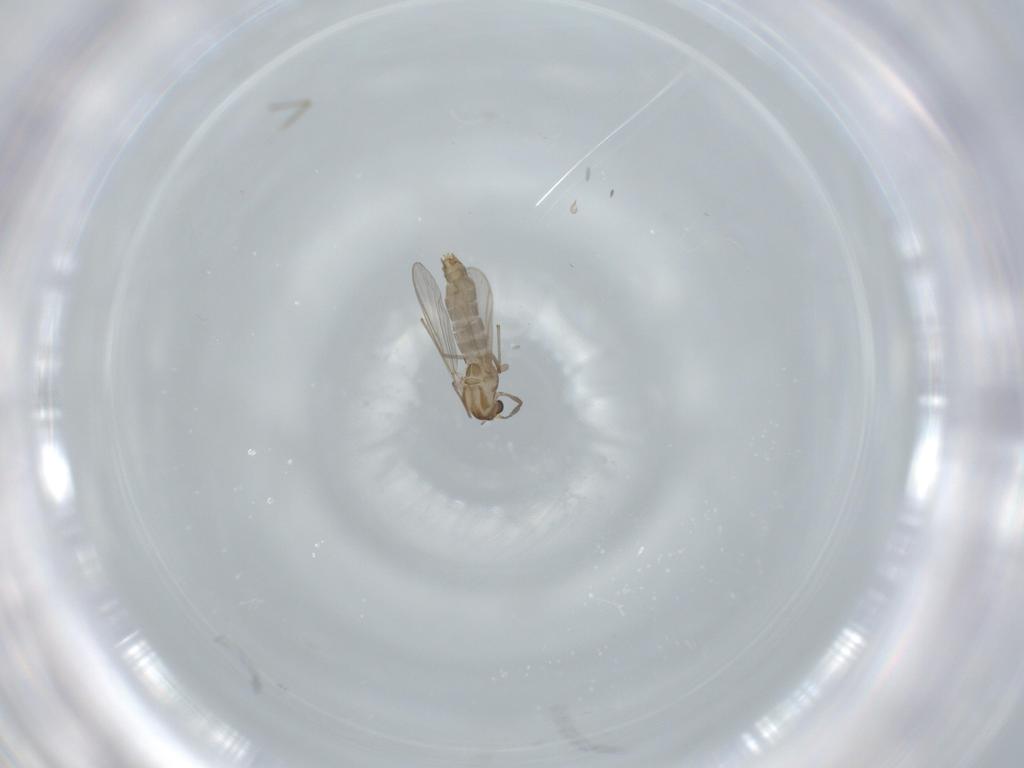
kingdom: Animalia
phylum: Arthropoda
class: Insecta
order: Diptera
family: Chironomidae
